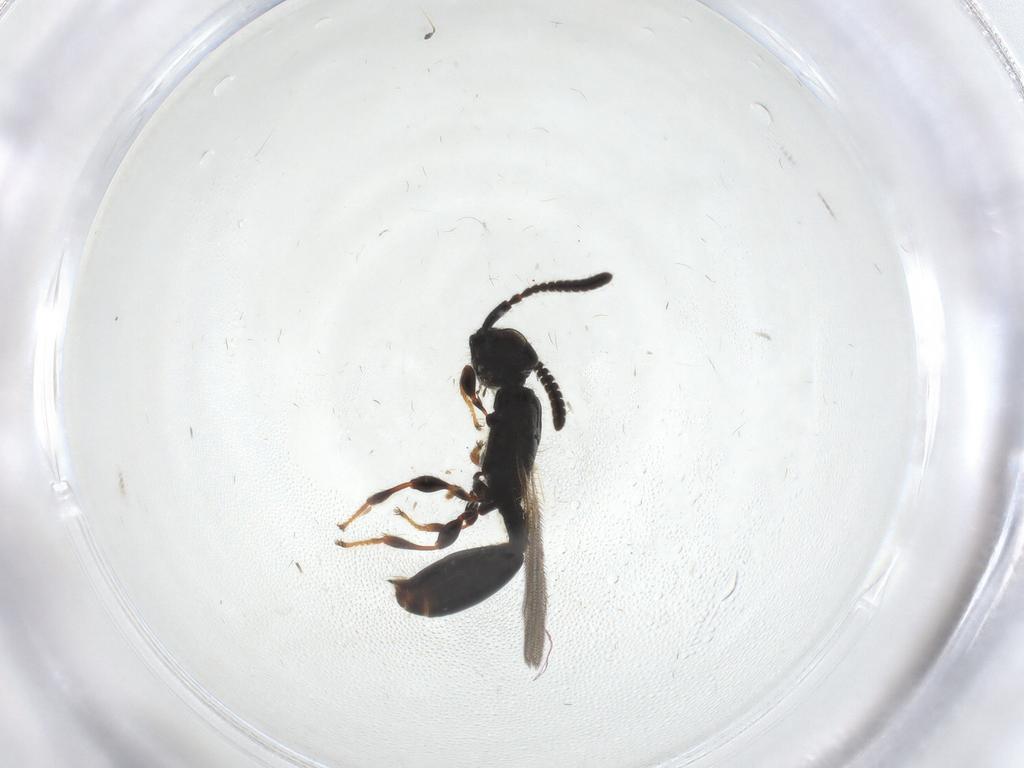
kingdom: Animalia
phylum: Arthropoda
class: Insecta
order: Hymenoptera
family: Diapriidae
